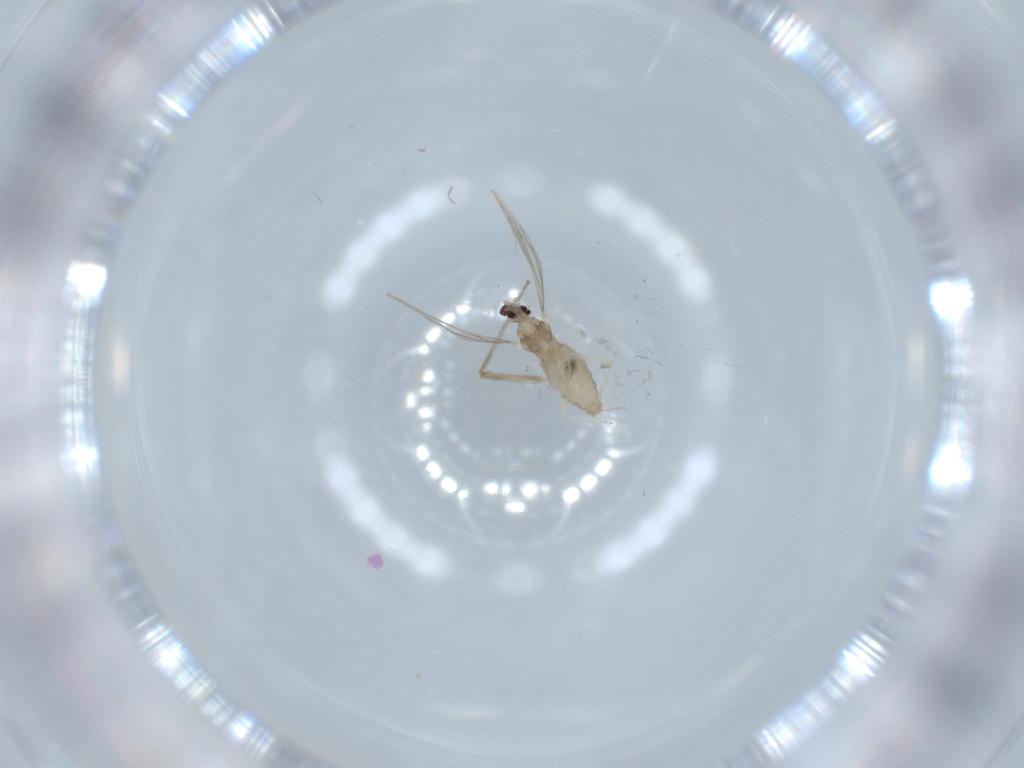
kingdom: Animalia
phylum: Arthropoda
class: Insecta
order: Diptera
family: Cecidomyiidae
